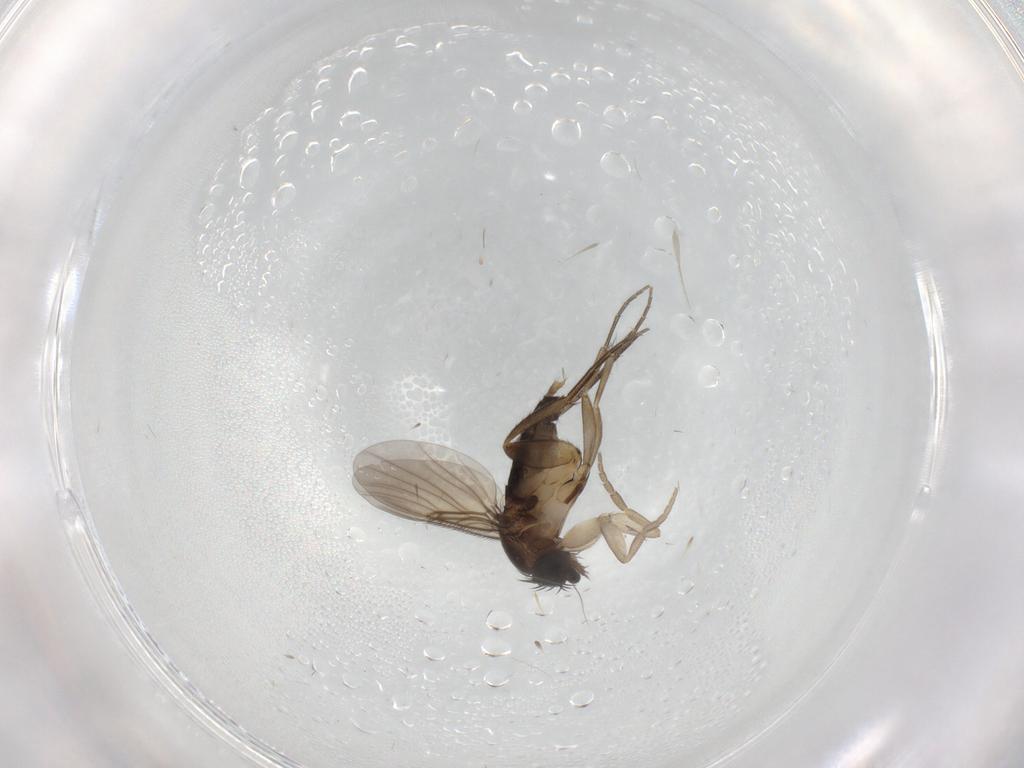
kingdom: Animalia
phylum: Arthropoda
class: Insecta
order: Diptera
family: Phoridae
